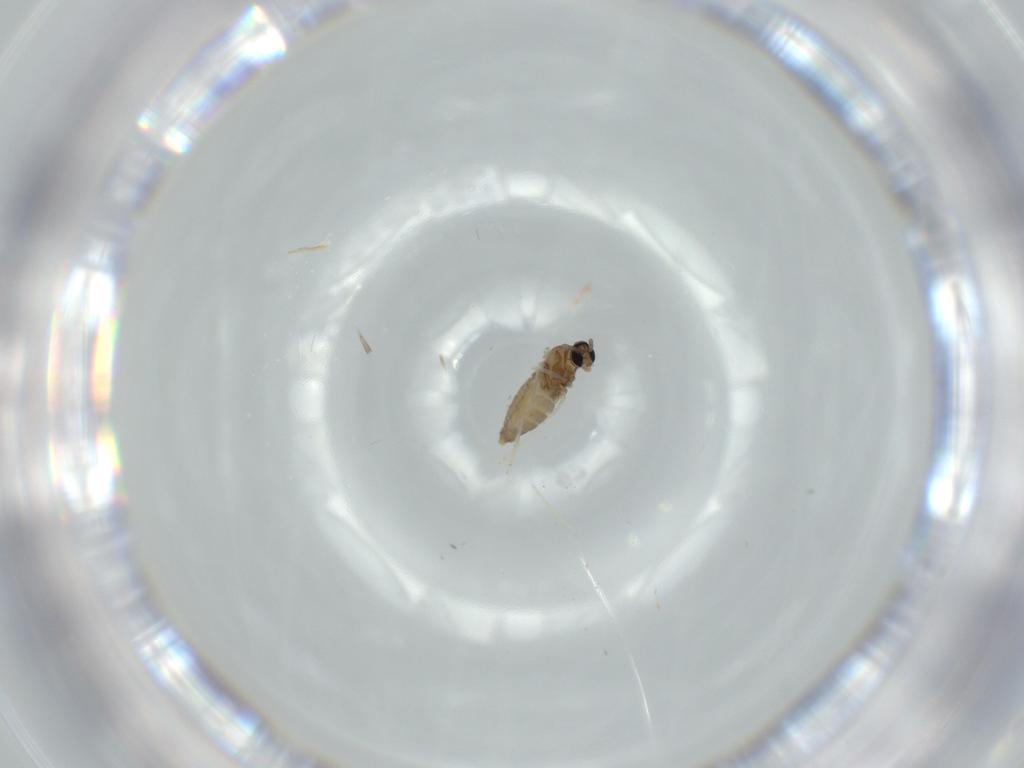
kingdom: Animalia
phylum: Arthropoda
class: Insecta
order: Diptera
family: Cecidomyiidae
